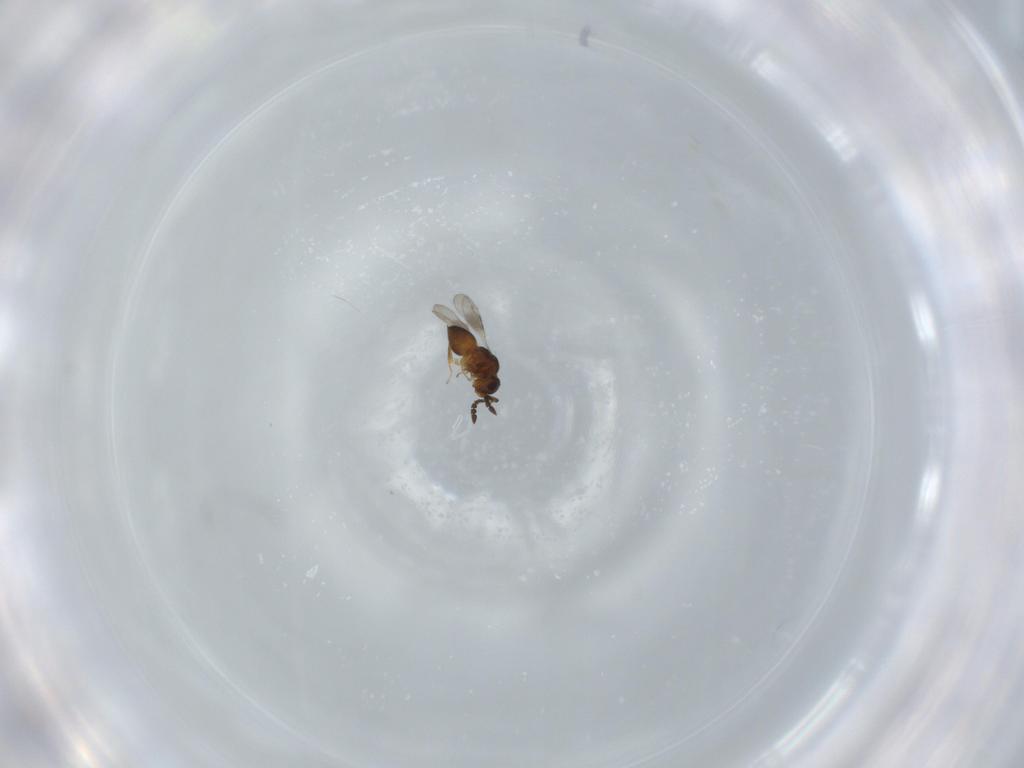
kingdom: Animalia
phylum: Arthropoda
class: Insecta
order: Hymenoptera
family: Ceraphronidae
